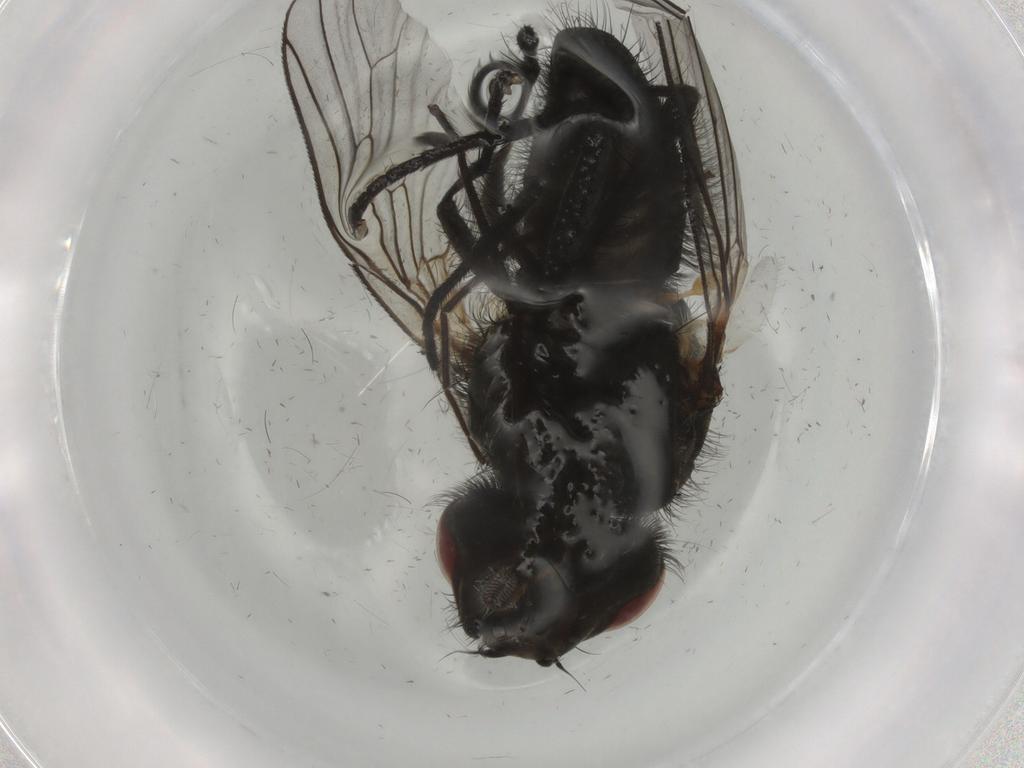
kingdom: Animalia
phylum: Arthropoda
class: Insecta
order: Diptera
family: Anthomyiidae
